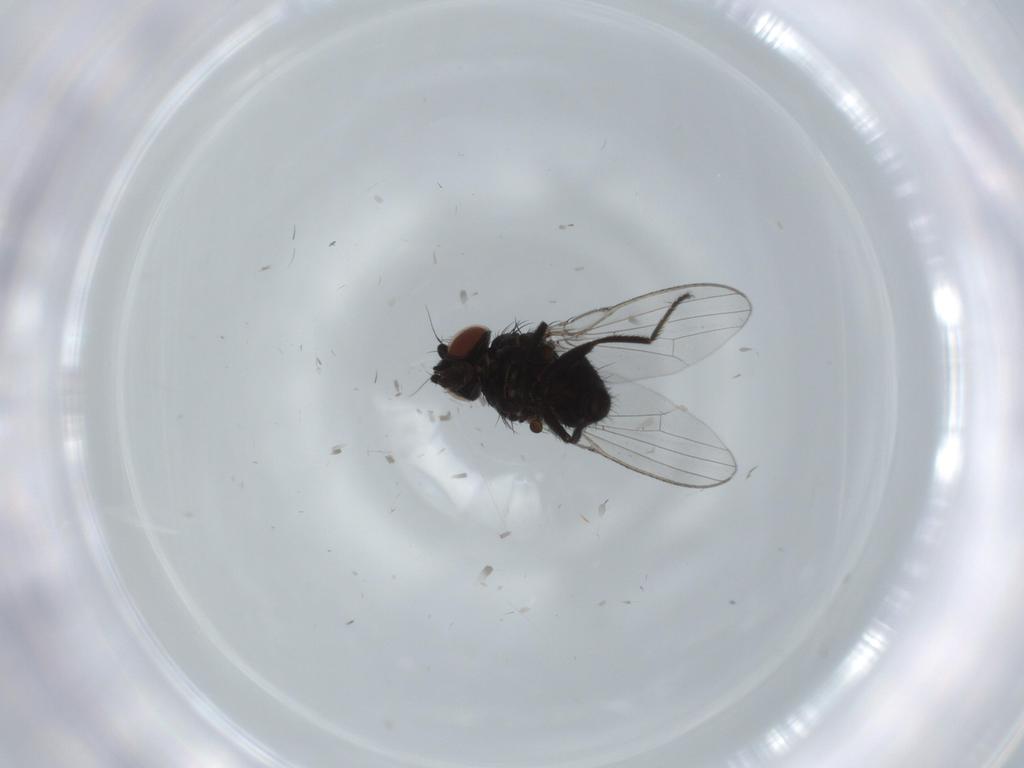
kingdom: Animalia
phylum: Arthropoda
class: Insecta
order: Diptera
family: Milichiidae
